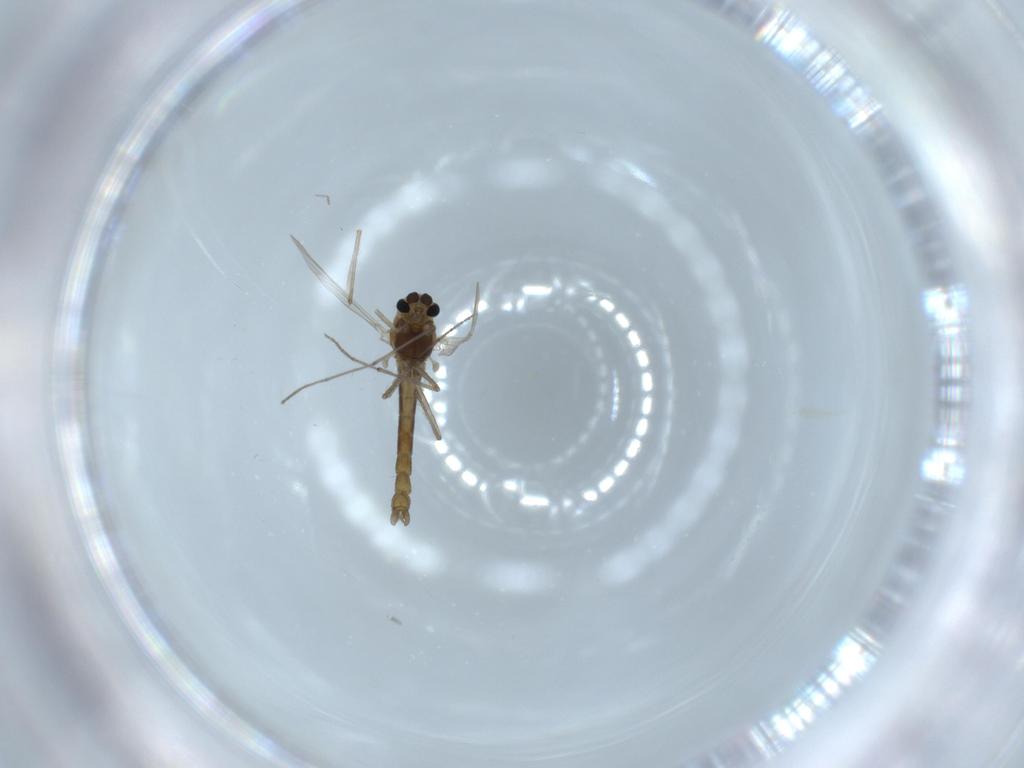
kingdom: Animalia
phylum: Arthropoda
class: Insecta
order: Diptera
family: Chironomidae
